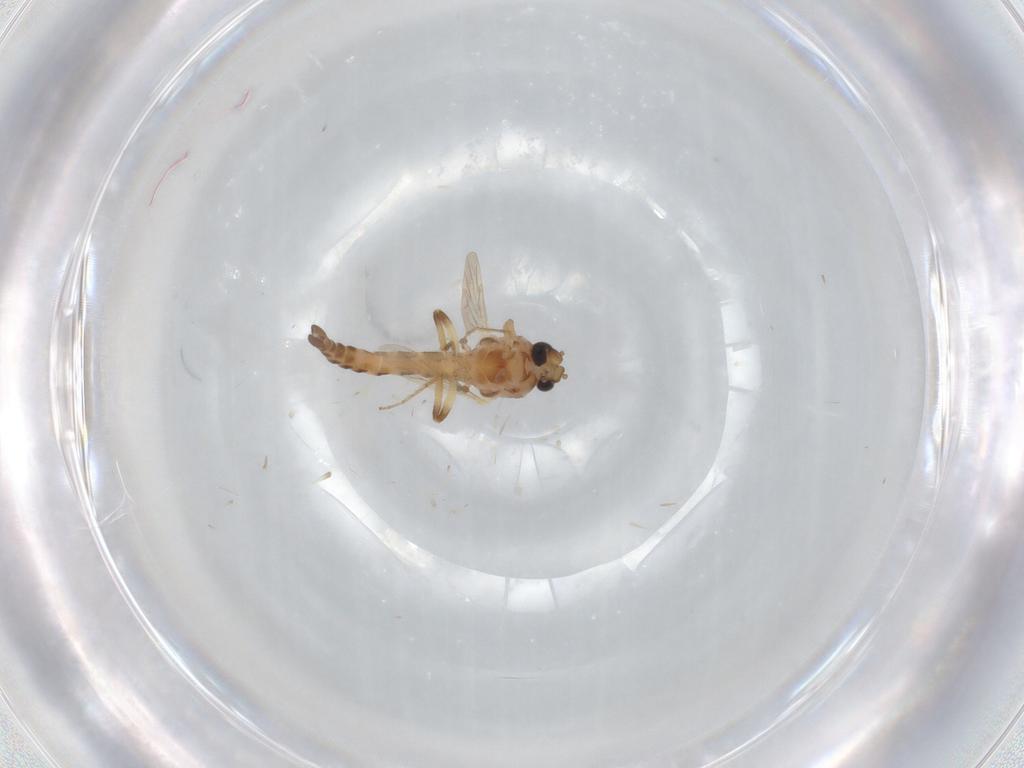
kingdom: Animalia
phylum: Arthropoda
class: Insecta
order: Diptera
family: Ceratopogonidae
